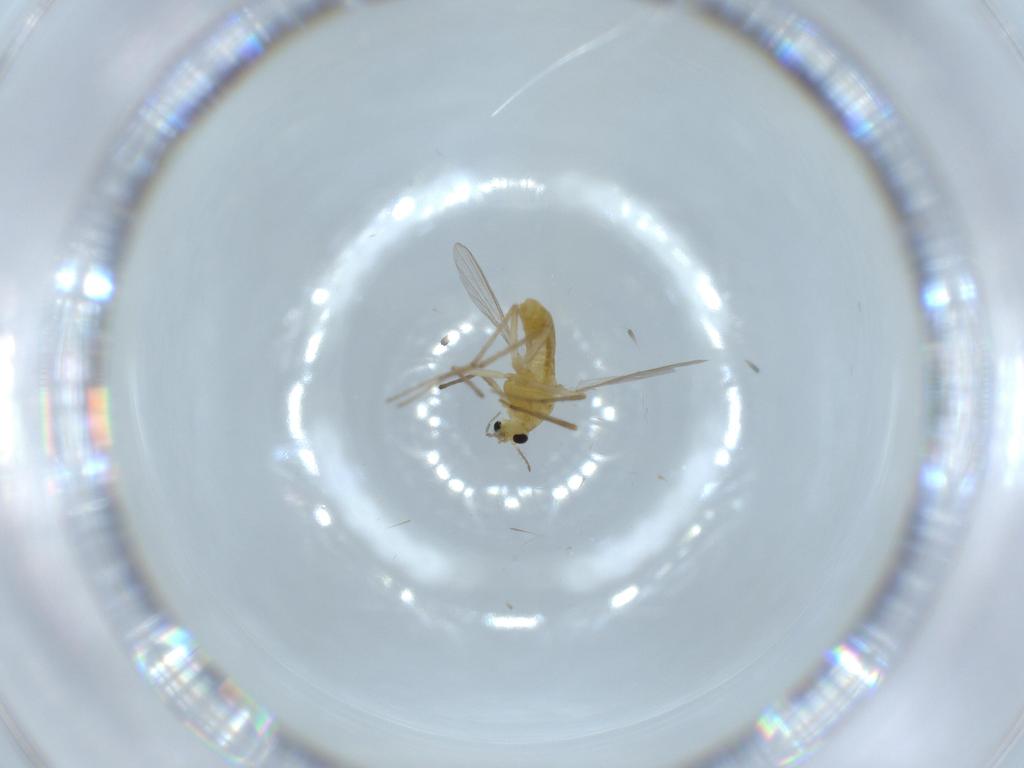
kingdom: Animalia
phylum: Arthropoda
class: Insecta
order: Diptera
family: Chironomidae
